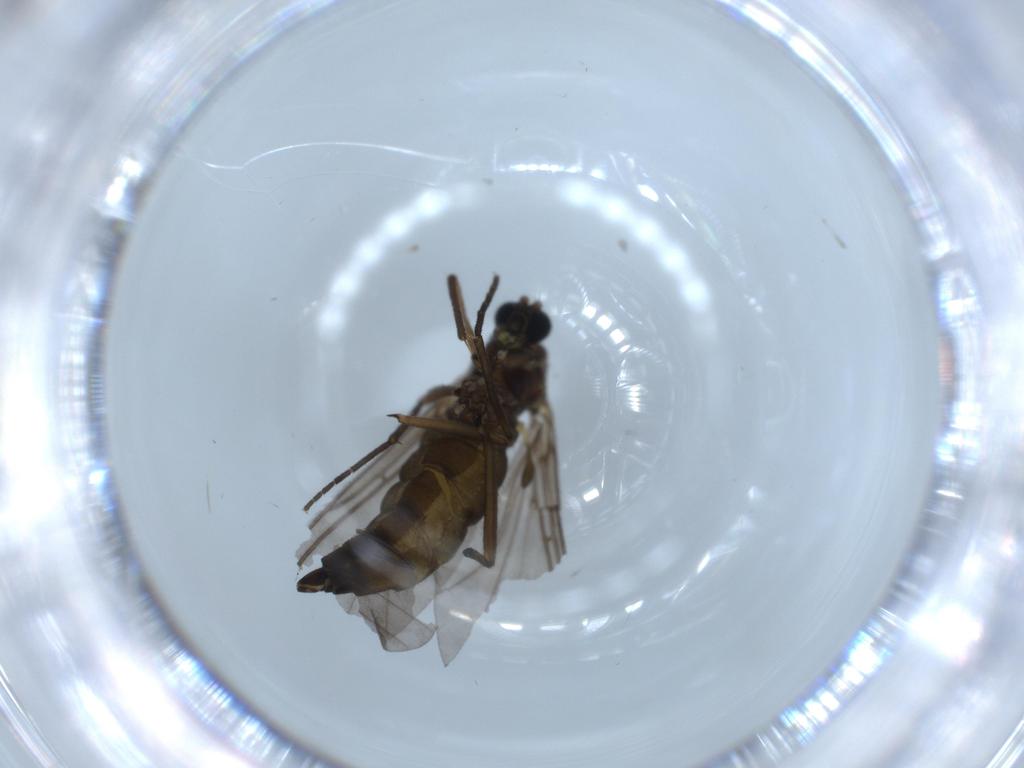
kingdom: Animalia
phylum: Arthropoda
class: Insecta
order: Diptera
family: Sciaridae
